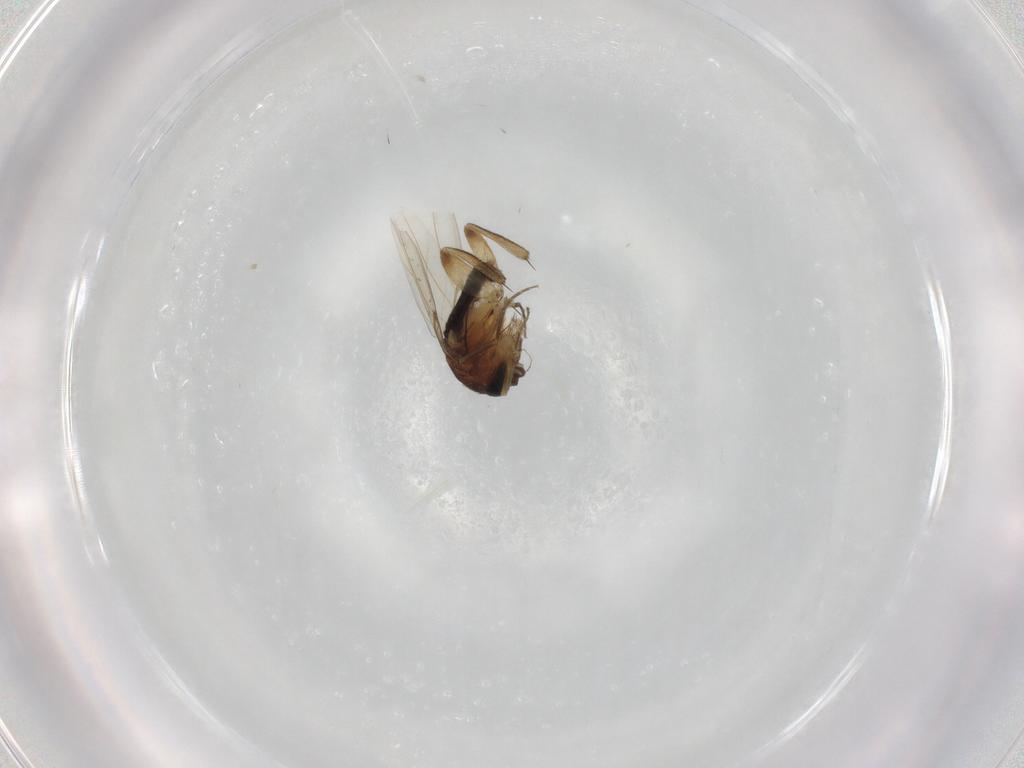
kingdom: Animalia
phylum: Arthropoda
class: Insecta
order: Diptera
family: Phoridae
